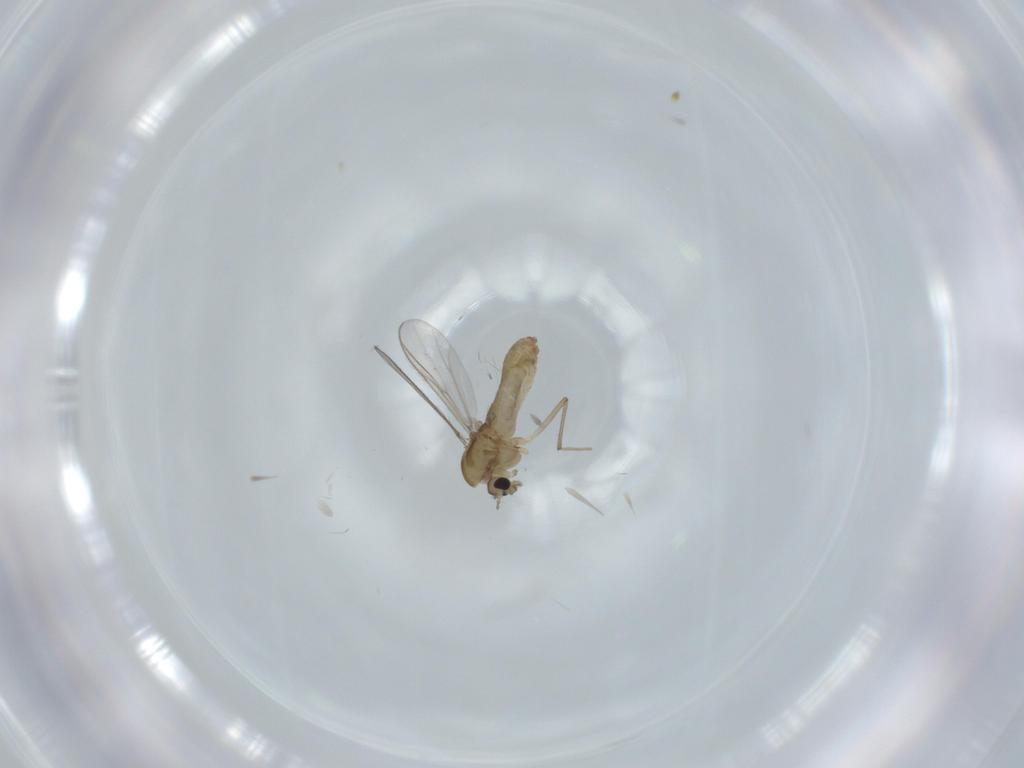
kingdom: Animalia
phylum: Arthropoda
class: Insecta
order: Diptera
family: Chironomidae
